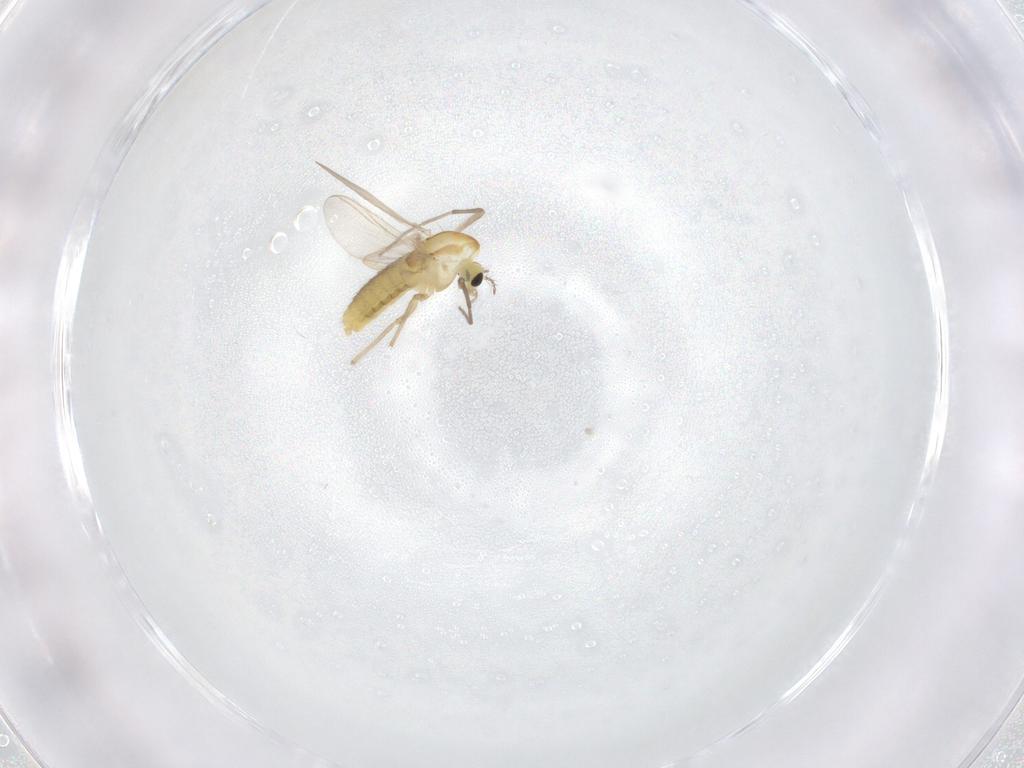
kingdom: Animalia
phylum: Arthropoda
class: Insecta
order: Diptera
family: Chironomidae
